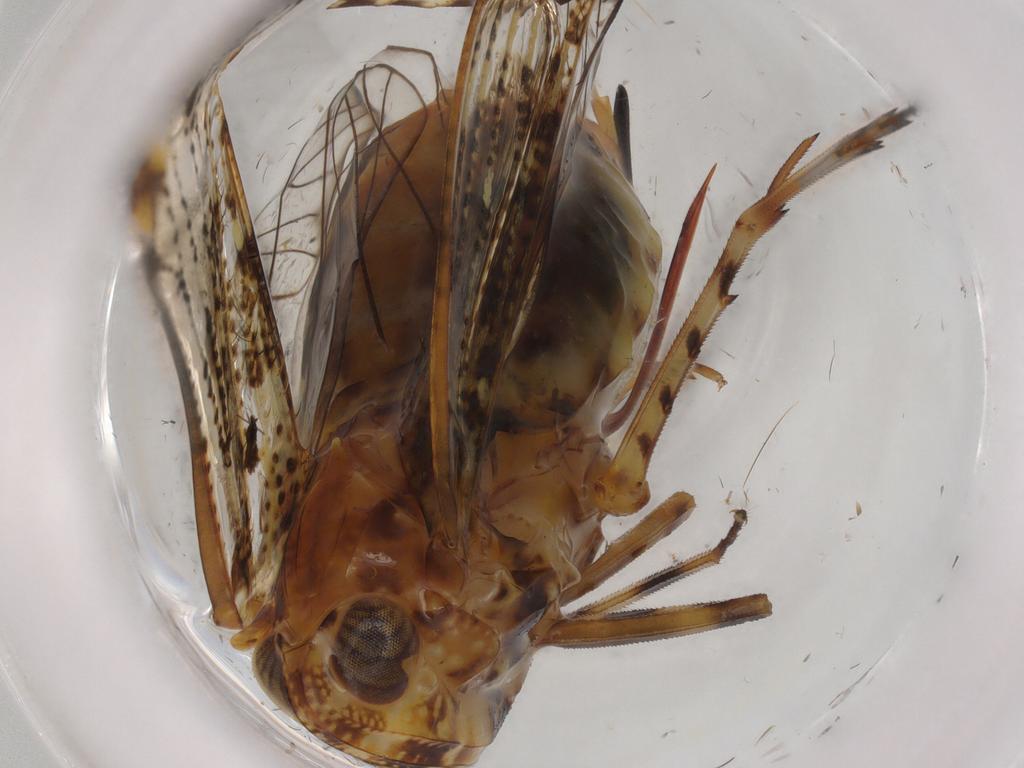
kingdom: Animalia
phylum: Arthropoda
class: Insecta
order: Hemiptera
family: Delphacidae
